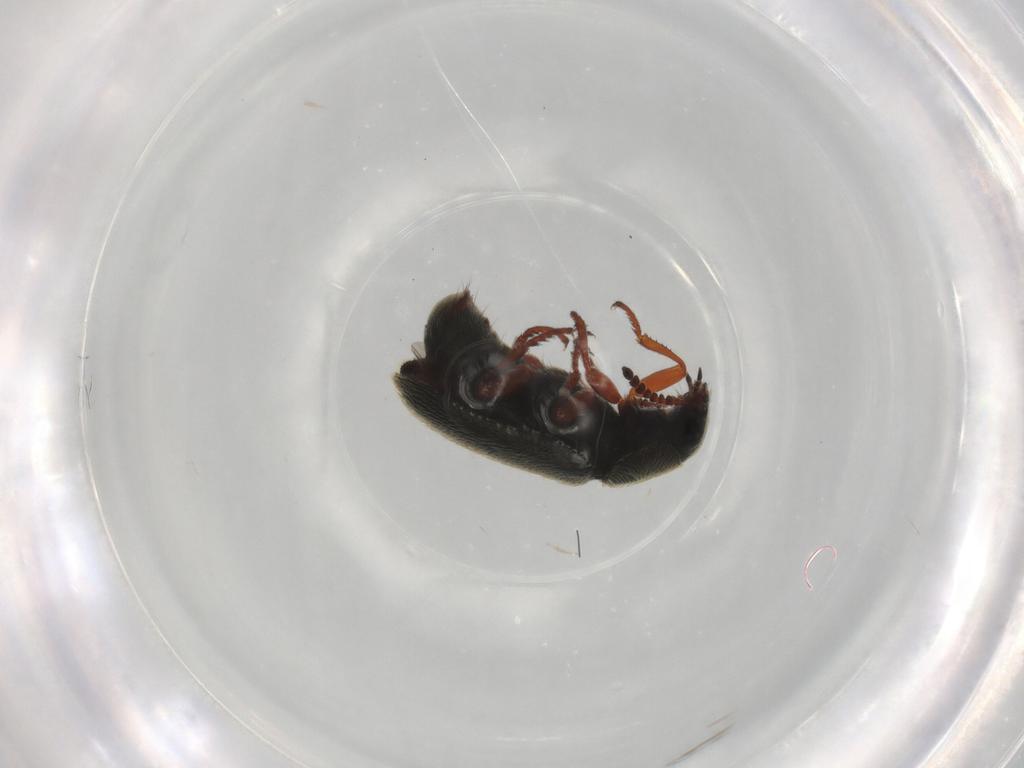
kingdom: Animalia
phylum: Arthropoda
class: Insecta
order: Coleoptera
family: Melyridae
